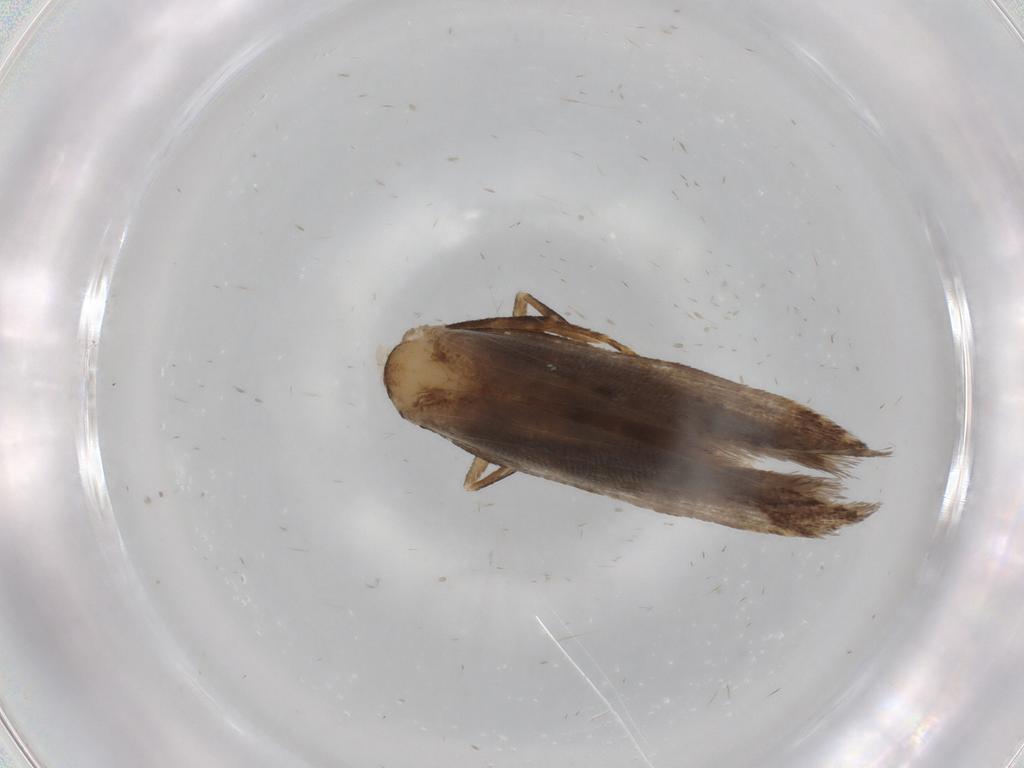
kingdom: Animalia
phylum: Arthropoda
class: Insecta
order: Lepidoptera
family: Gelechiidae
